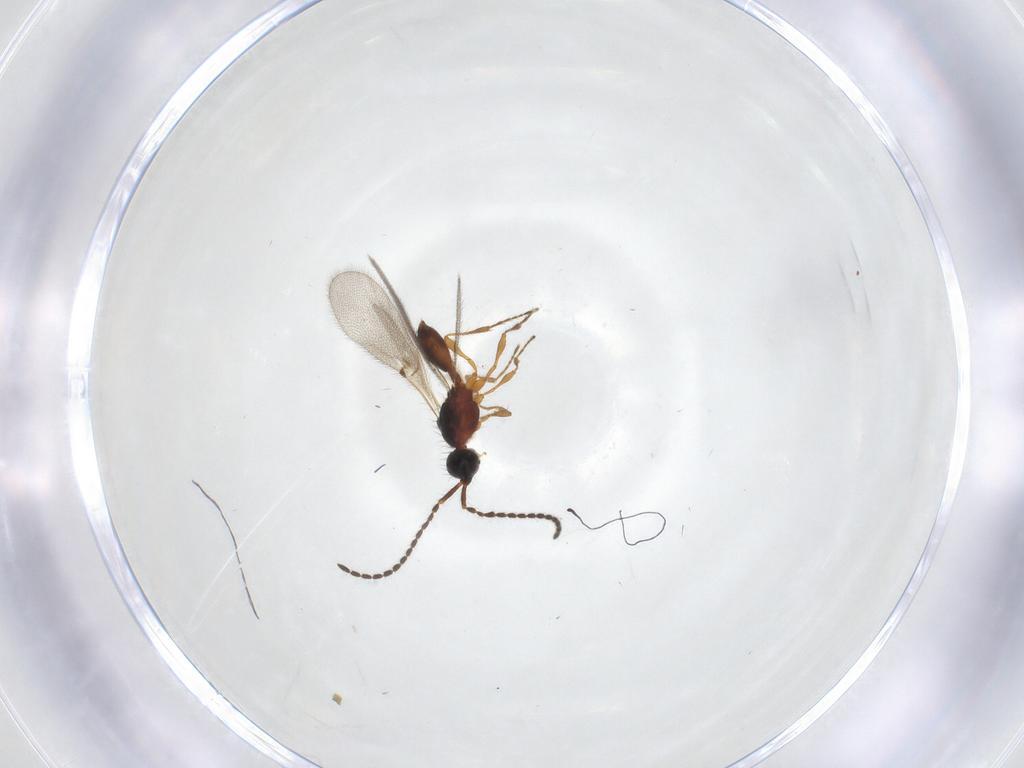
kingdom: Animalia
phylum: Arthropoda
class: Insecta
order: Hymenoptera
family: Diapriidae
